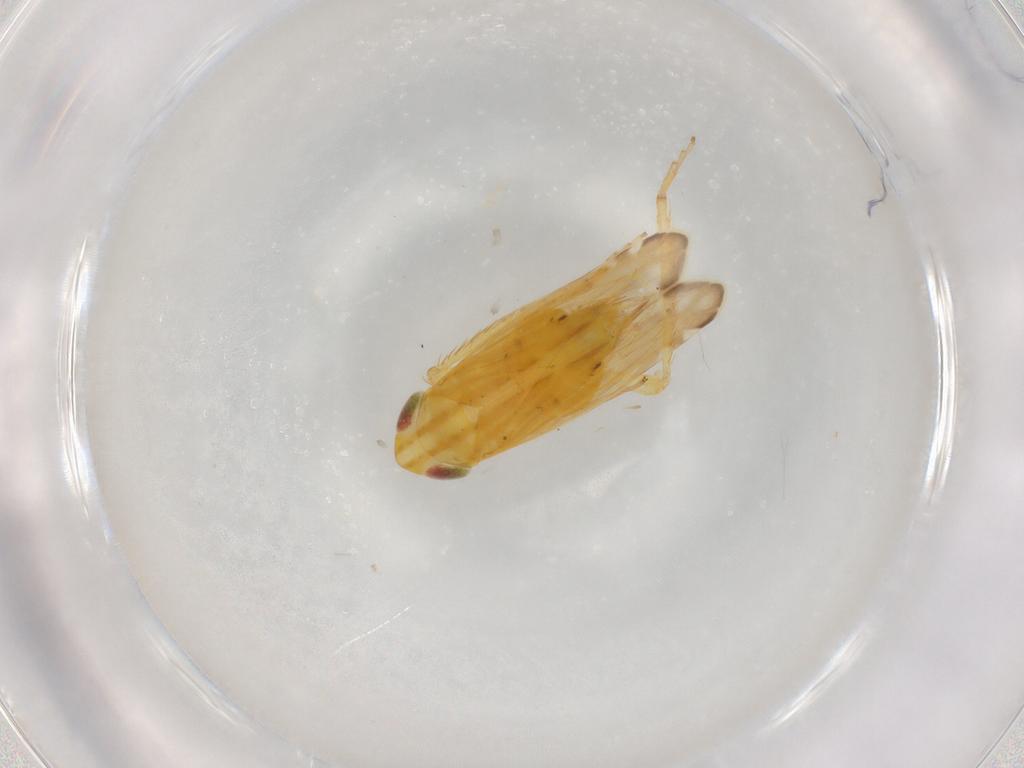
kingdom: Animalia
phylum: Arthropoda
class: Insecta
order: Hemiptera
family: Cicadellidae
